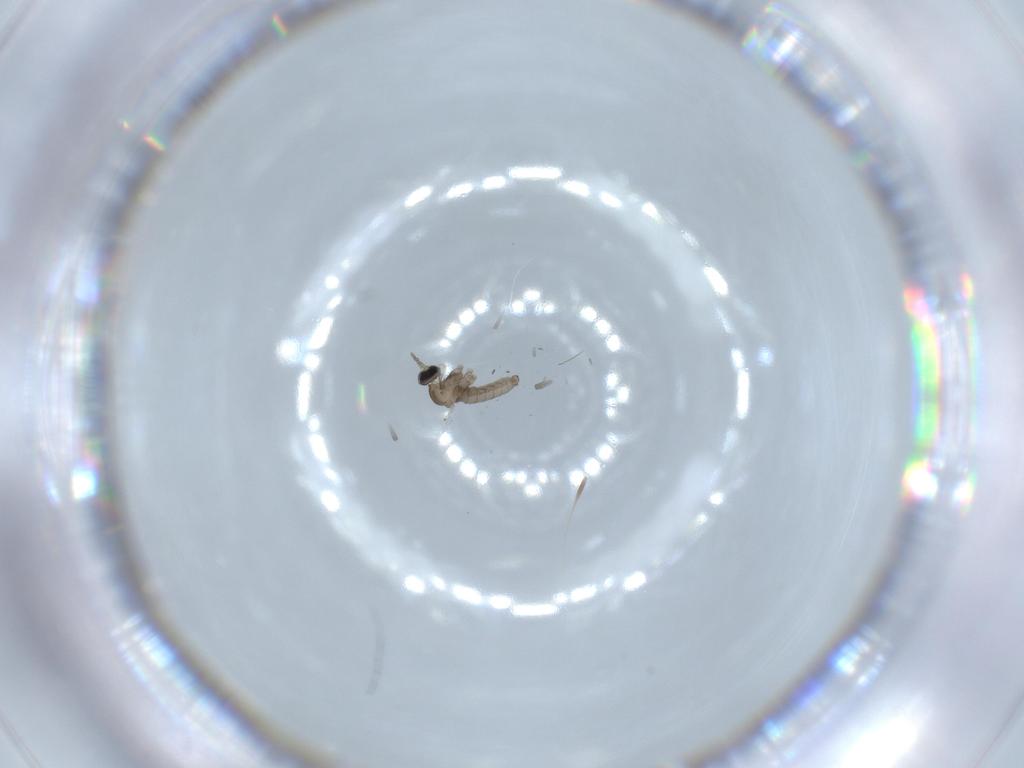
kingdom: Animalia
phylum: Arthropoda
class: Insecta
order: Diptera
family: Cecidomyiidae
